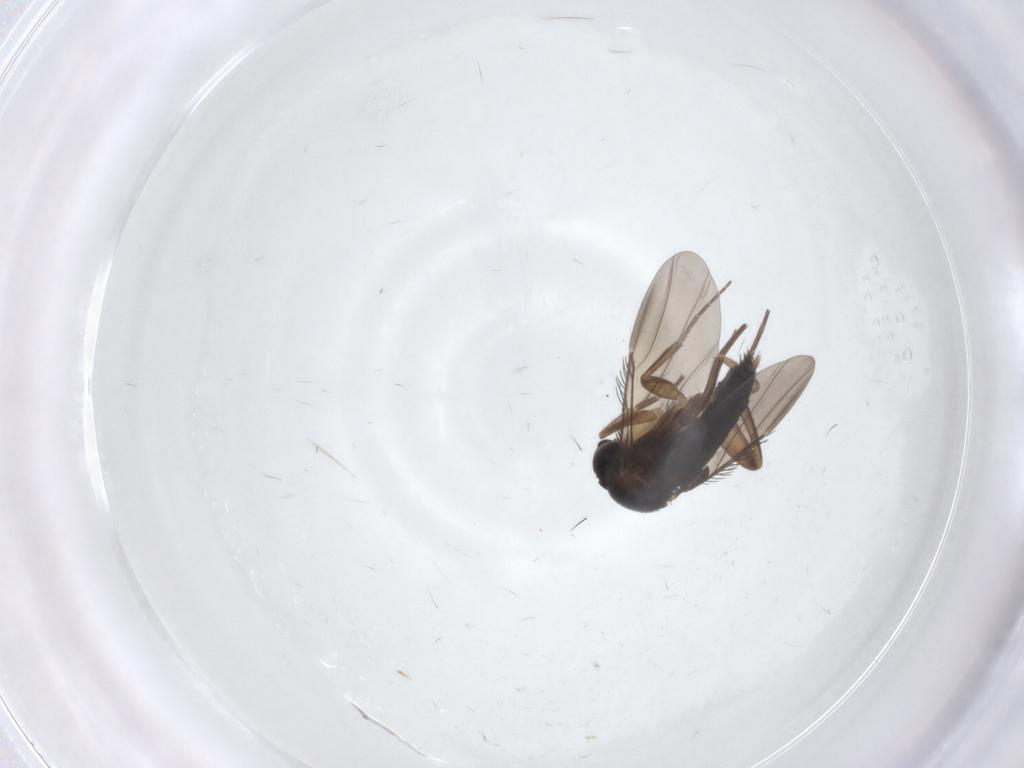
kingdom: Animalia
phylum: Arthropoda
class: Insecta
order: Diptera
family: Phoridae
